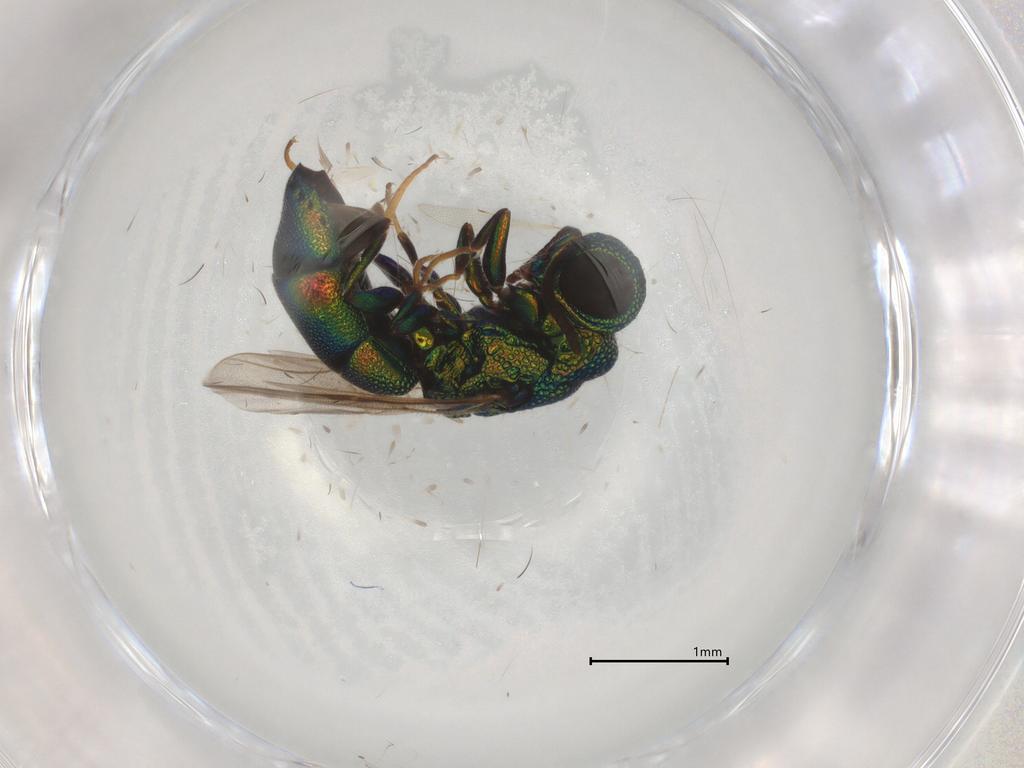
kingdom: Animalia
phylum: Arthropoda
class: Insecta
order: Hymenoptera
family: Chrysididae
